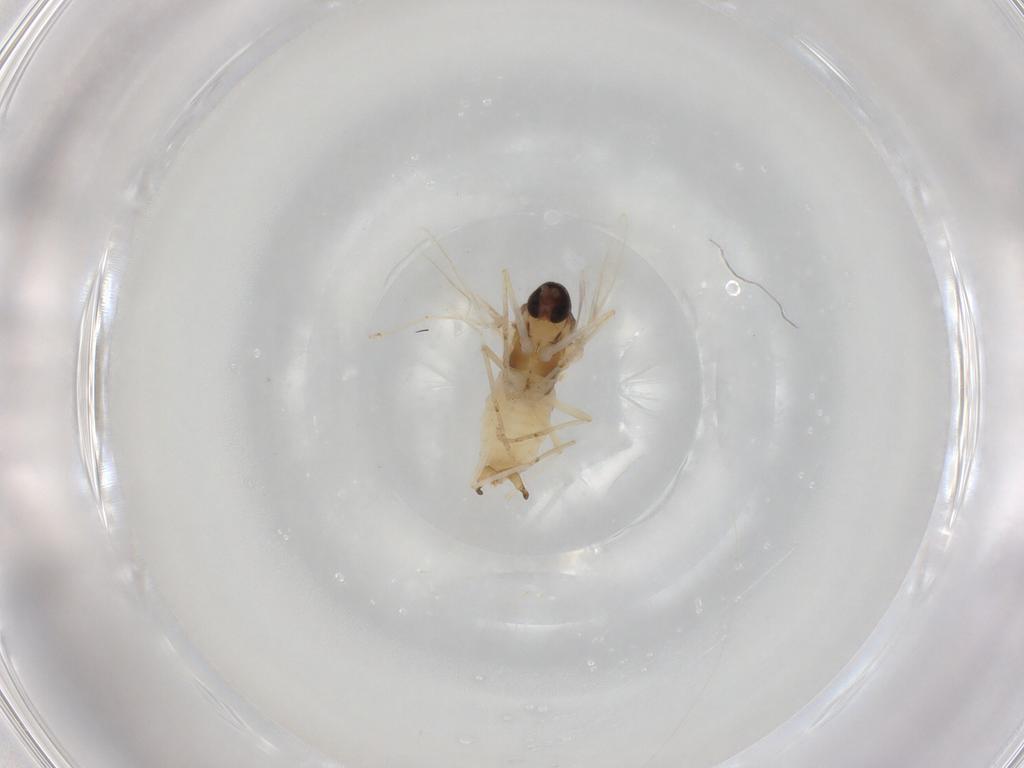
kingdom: Animalia
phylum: Arthropoda
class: Insecta
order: Diptera
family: Cecidomyiidae
